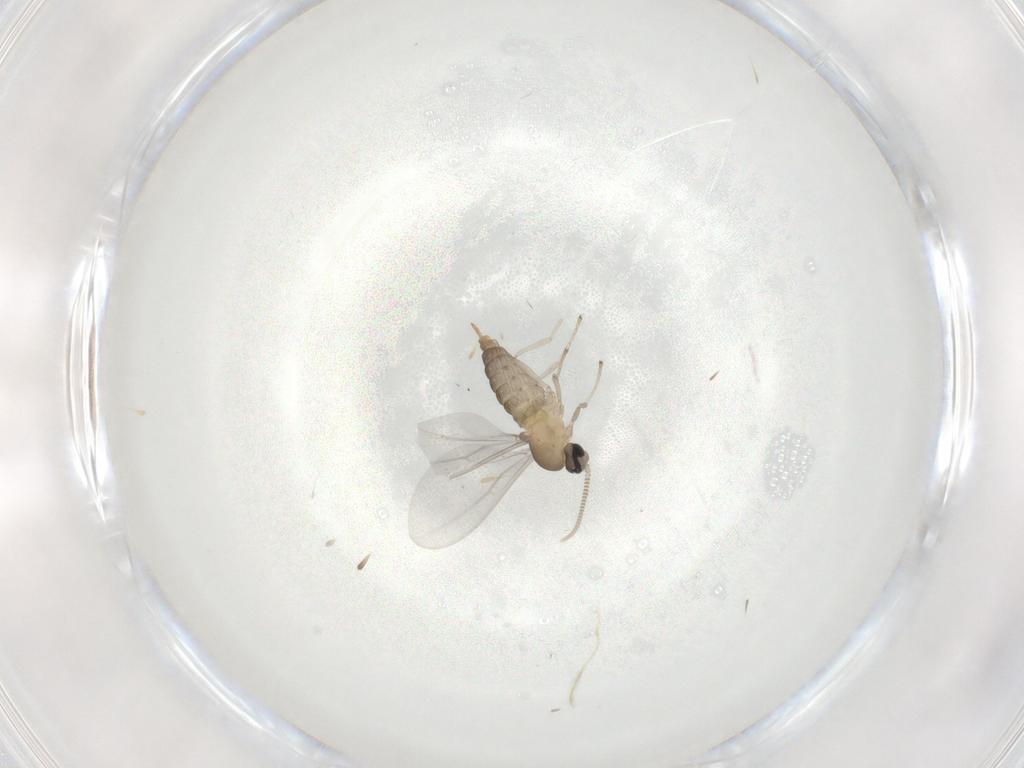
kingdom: Animalia
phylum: Arthropoda
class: Insecta
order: Diptera
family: Cecidomyiidae
